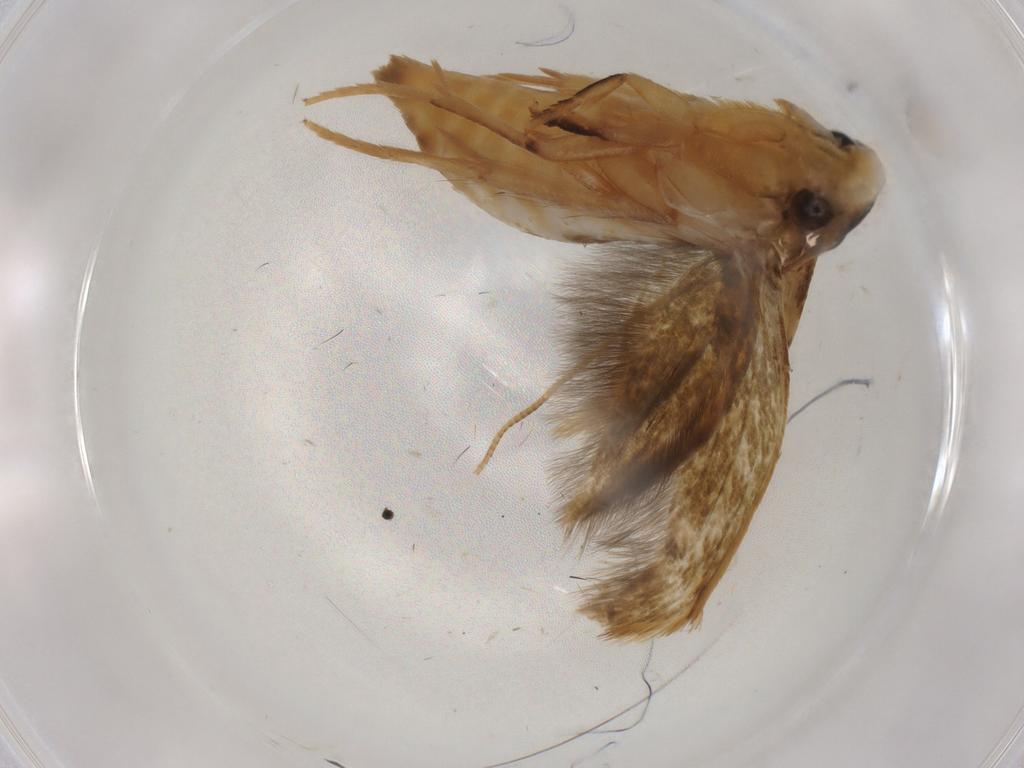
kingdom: Animalia
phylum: Arthropoda
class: Insecta
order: Lepidoptera
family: Tineidae
